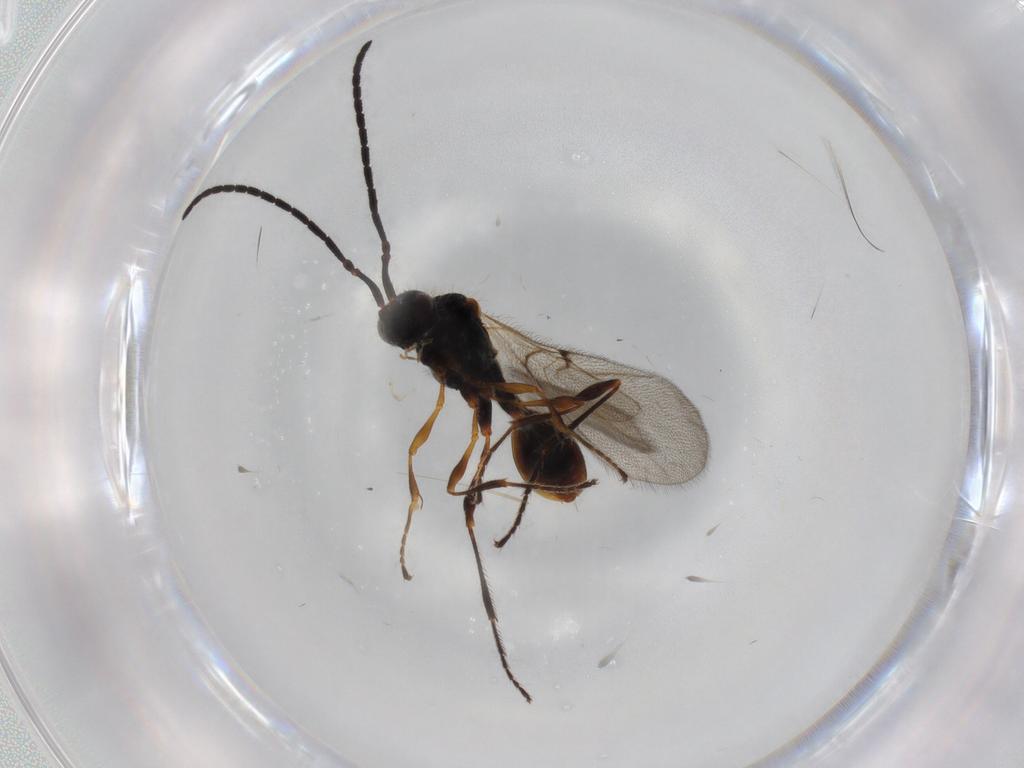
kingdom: Animalia
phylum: Arthropoda
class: Insecta
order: Hymenoptera
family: Diapriidae
